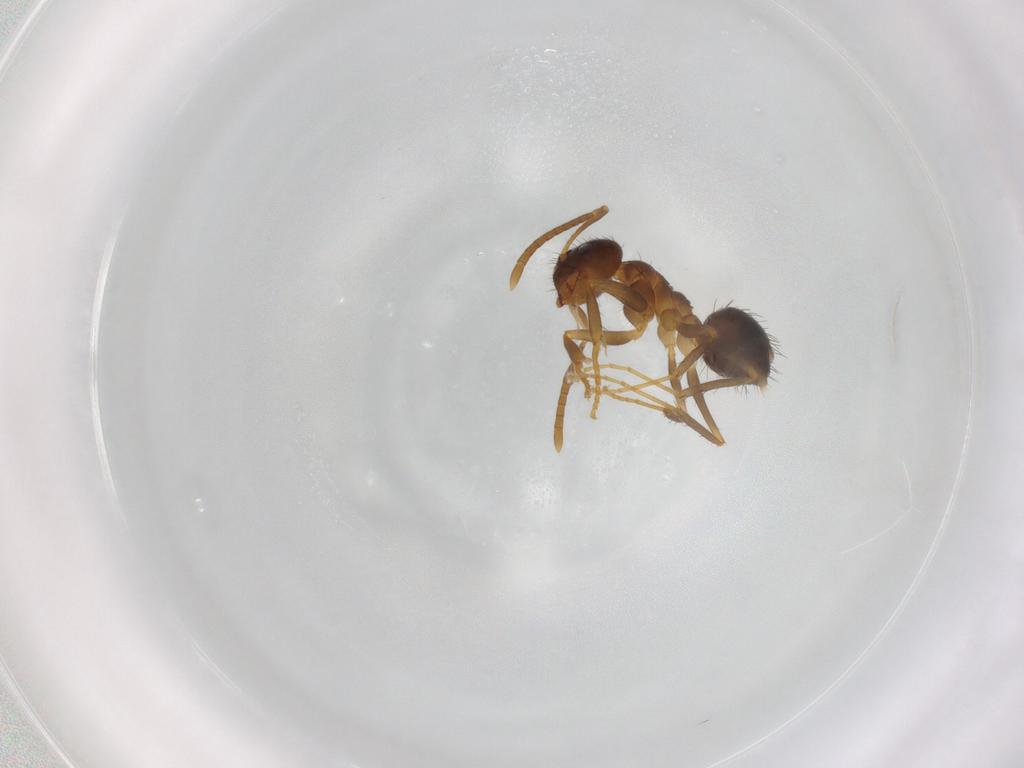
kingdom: Animalia
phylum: Arthropoda
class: Insecta
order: Hymenoptera
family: Formicidae
